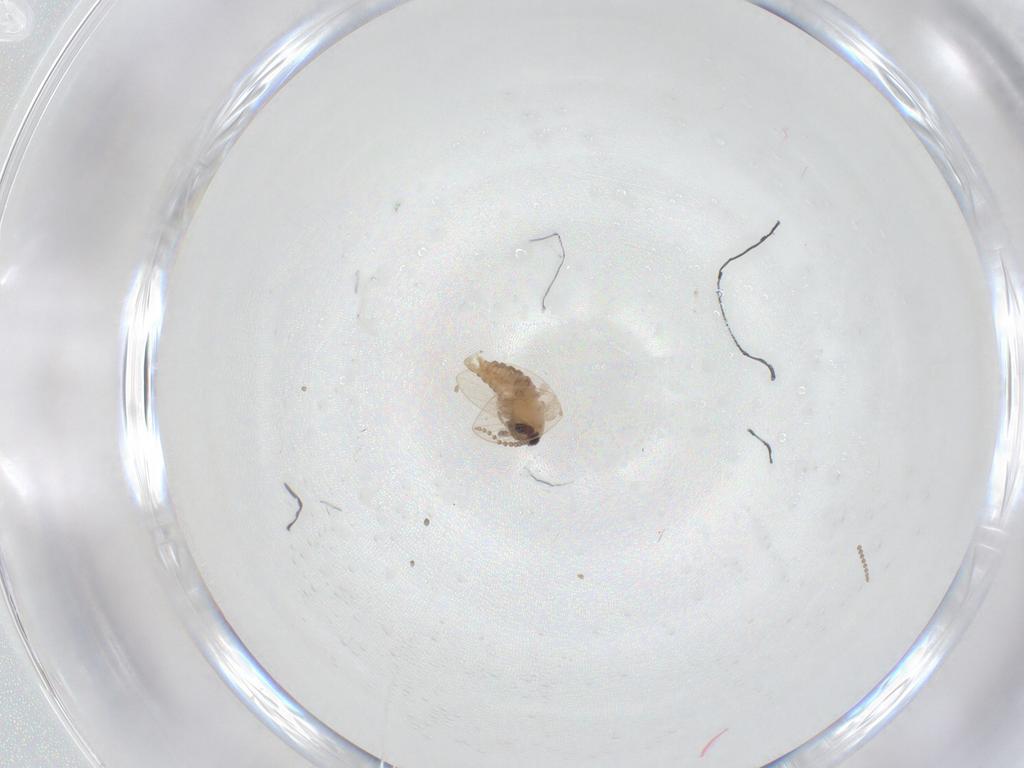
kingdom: Animalia
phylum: Arthropoda
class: Insecta
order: Diptera
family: Psychodidae
